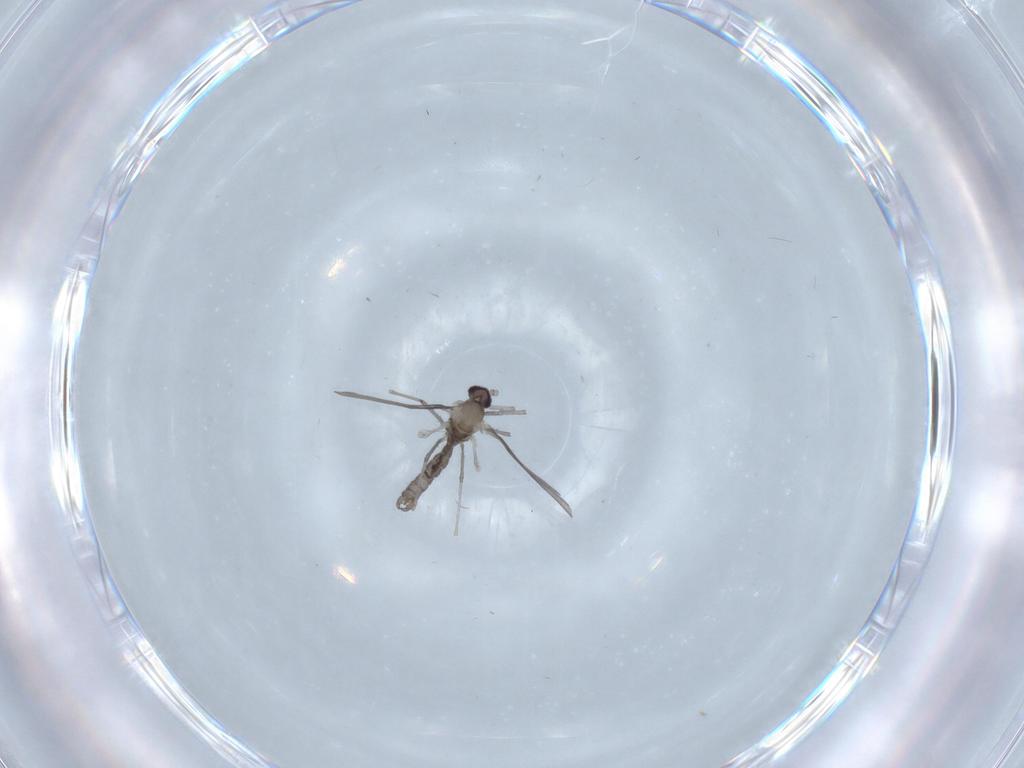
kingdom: Animalia
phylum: Arthropoda
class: Insecta
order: Diptera
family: Cecidomyiidae
